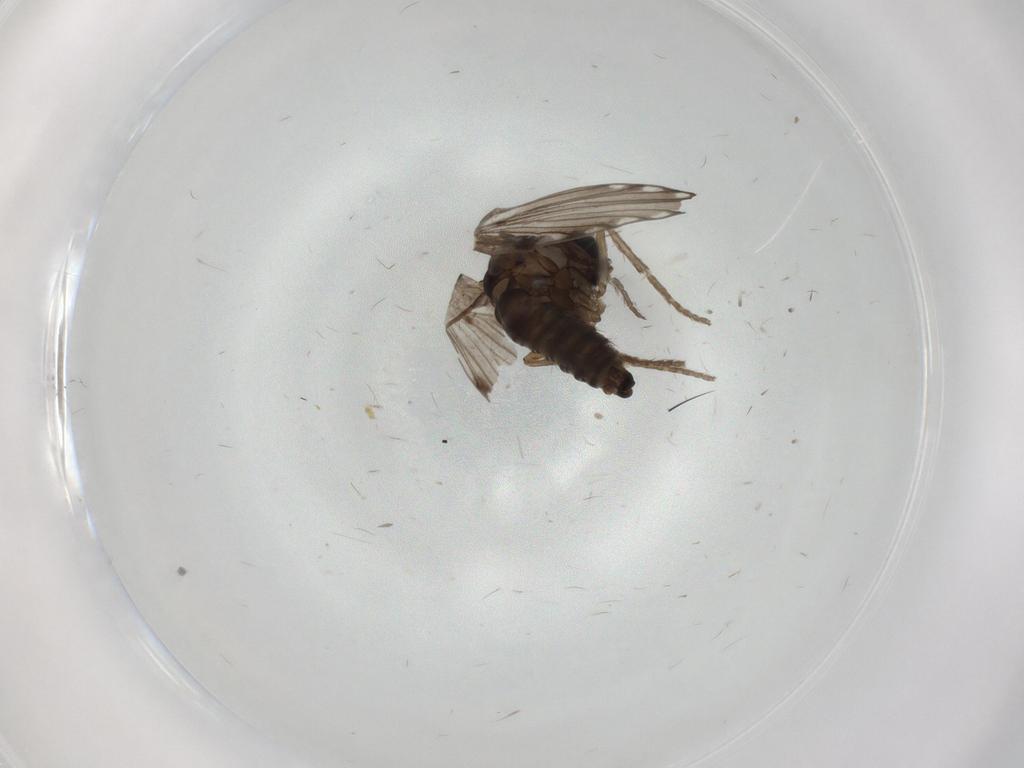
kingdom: Animalia
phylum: Arthropoda
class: Insecta
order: Diptera
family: Psychodidae
